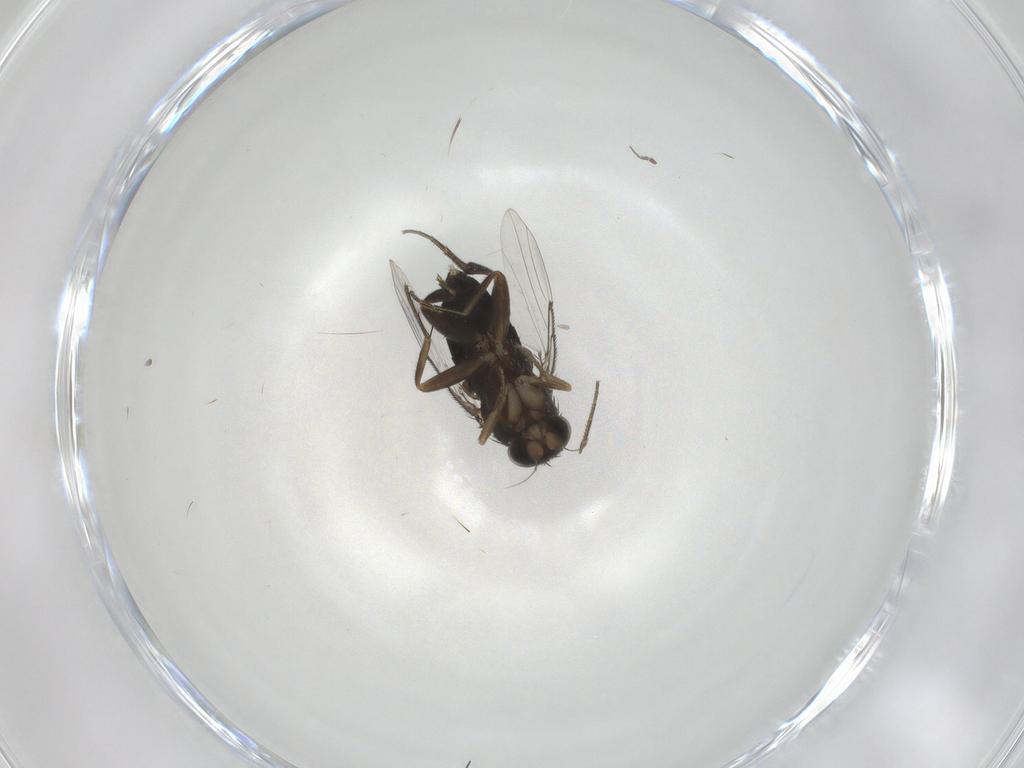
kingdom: Animalia
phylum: Arthropoda
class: Insecta
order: Diptera
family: Phoridae
